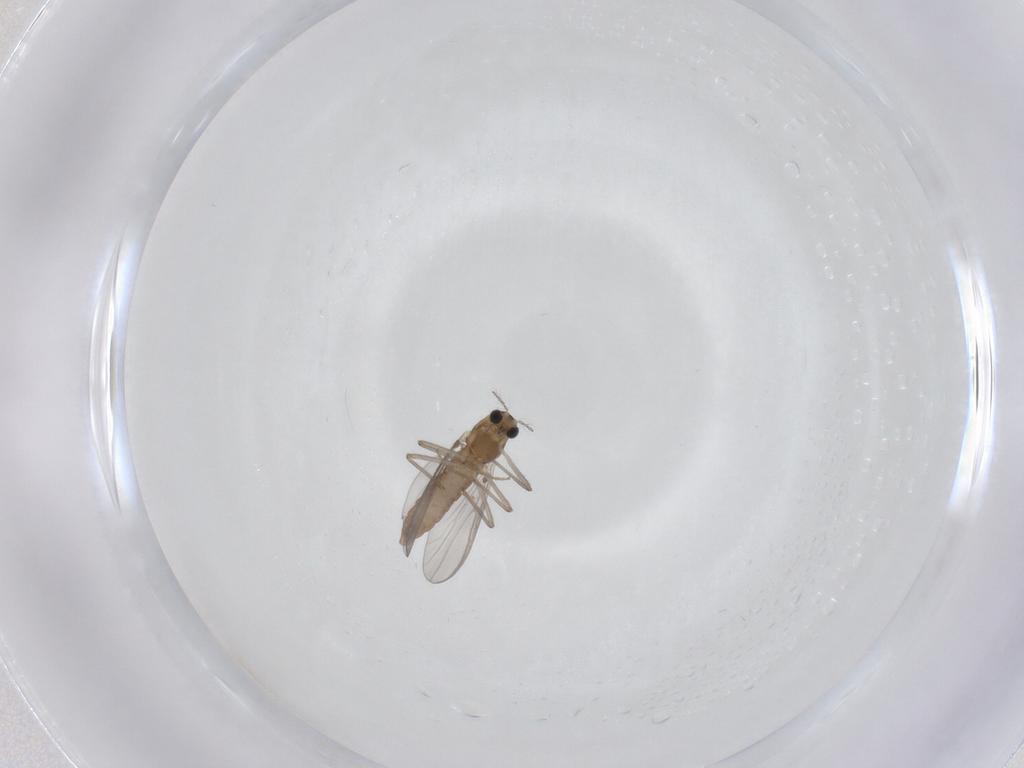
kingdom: Animalia
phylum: Arthropoda
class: Insecta
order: Diptera
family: Chironomidae
